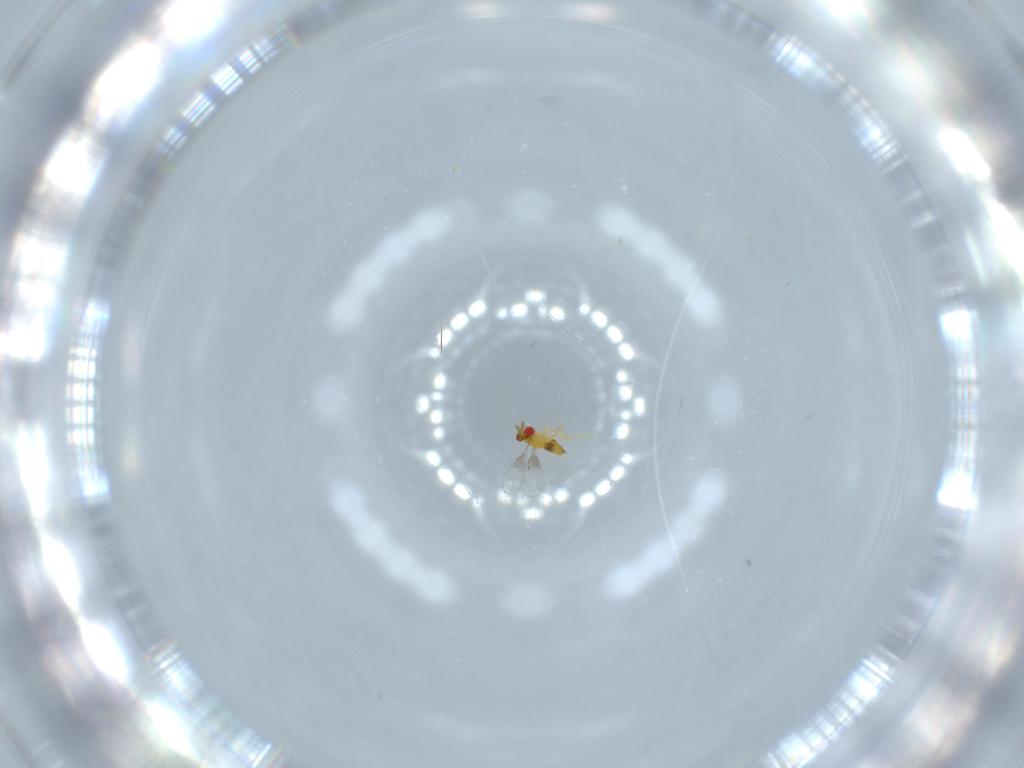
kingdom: Animalia
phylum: Arthropoda
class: Insecta
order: Hymenoptera
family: Trichogrammatidae
